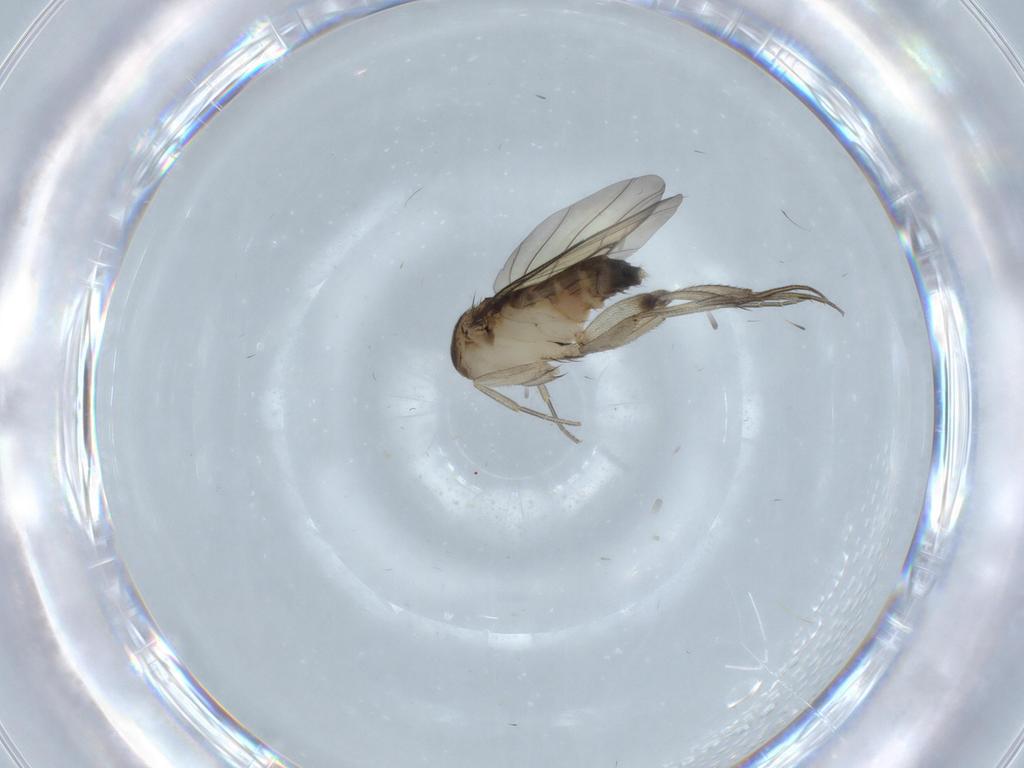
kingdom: Animalia
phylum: Arthropoda
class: Insecta
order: Diptera
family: Phoridae
